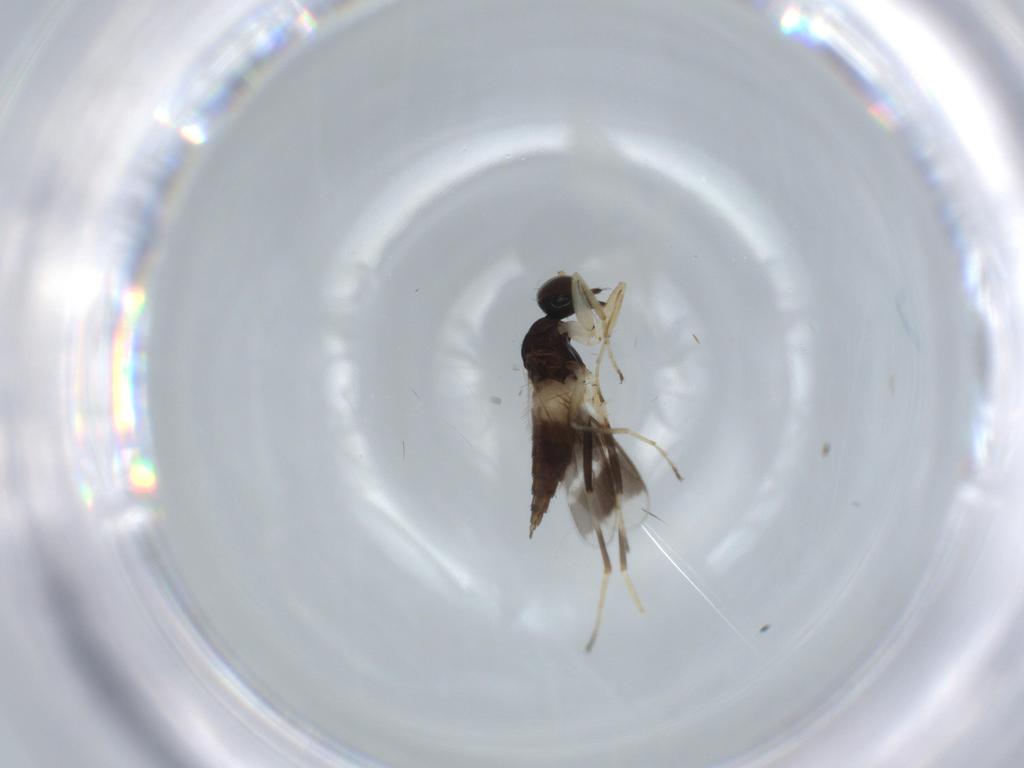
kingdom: Animalia
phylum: Arthropoda
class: Insecta
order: Diptera
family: Hybotidae
